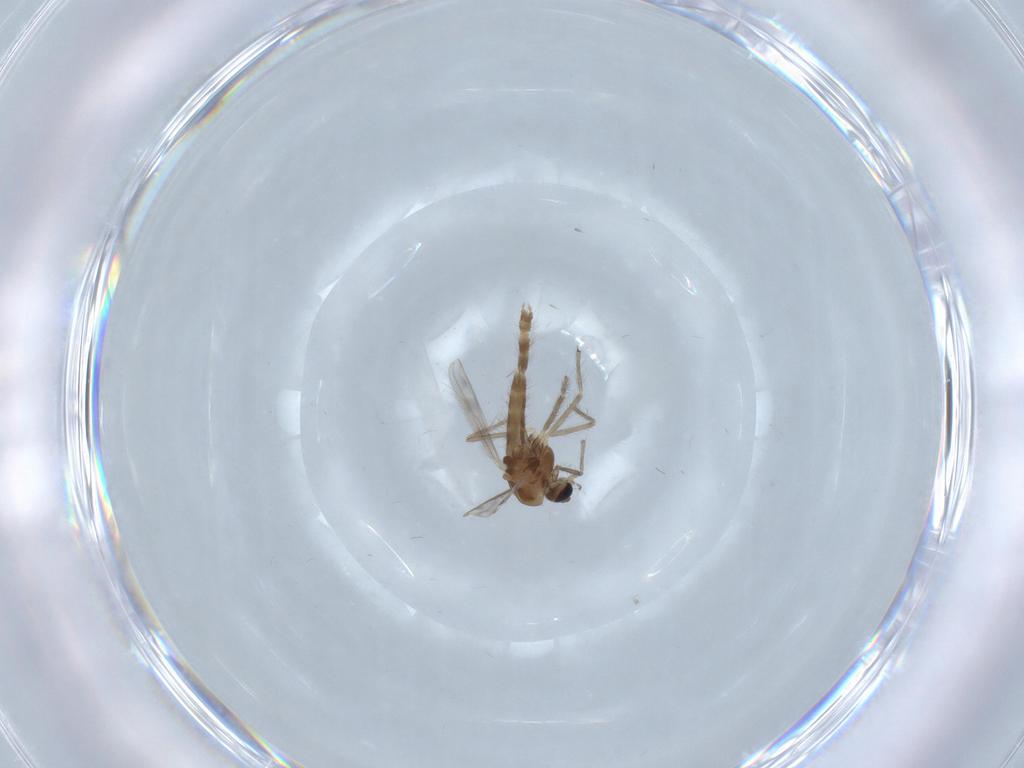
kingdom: Animalia
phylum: Arthropoda
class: Insecta
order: Diptera
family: Chironomidae
